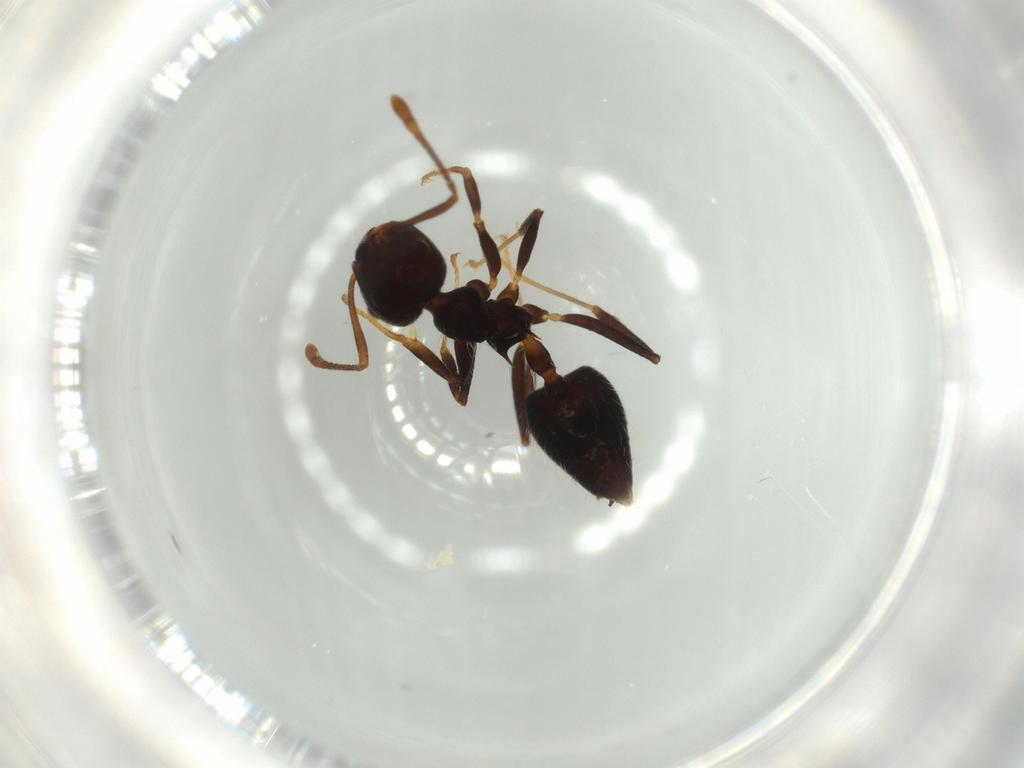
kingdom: Animalia
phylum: Arthropoda
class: Insecta
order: Hymenoptera
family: Formicidae
